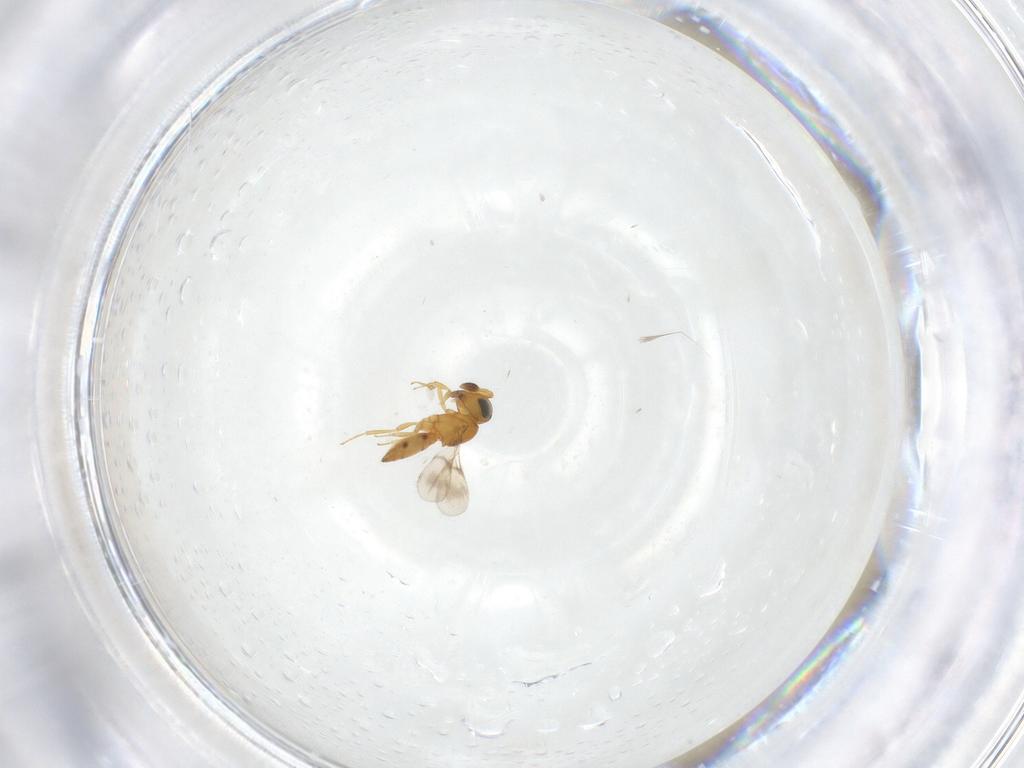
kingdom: Animalia
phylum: Arthropoda
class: Insecta
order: Hymenoptera
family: Scelionidae
